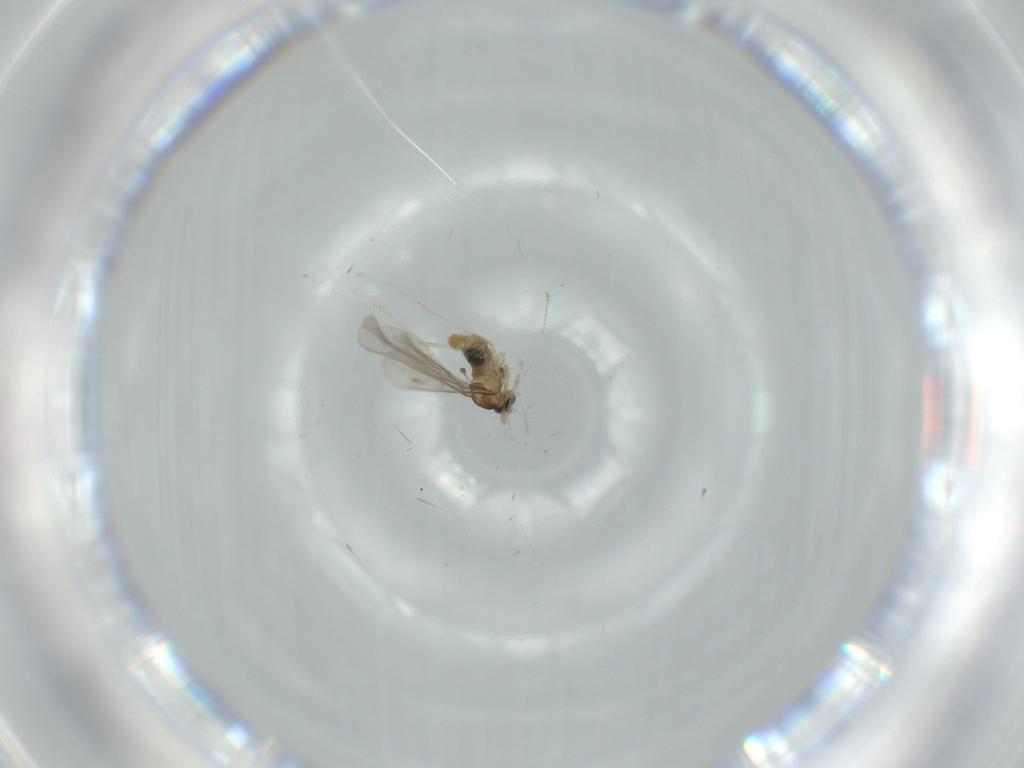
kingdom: Animalia
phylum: Arthropoda
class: Insecta
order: Diptera
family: Cecidomyiidae
